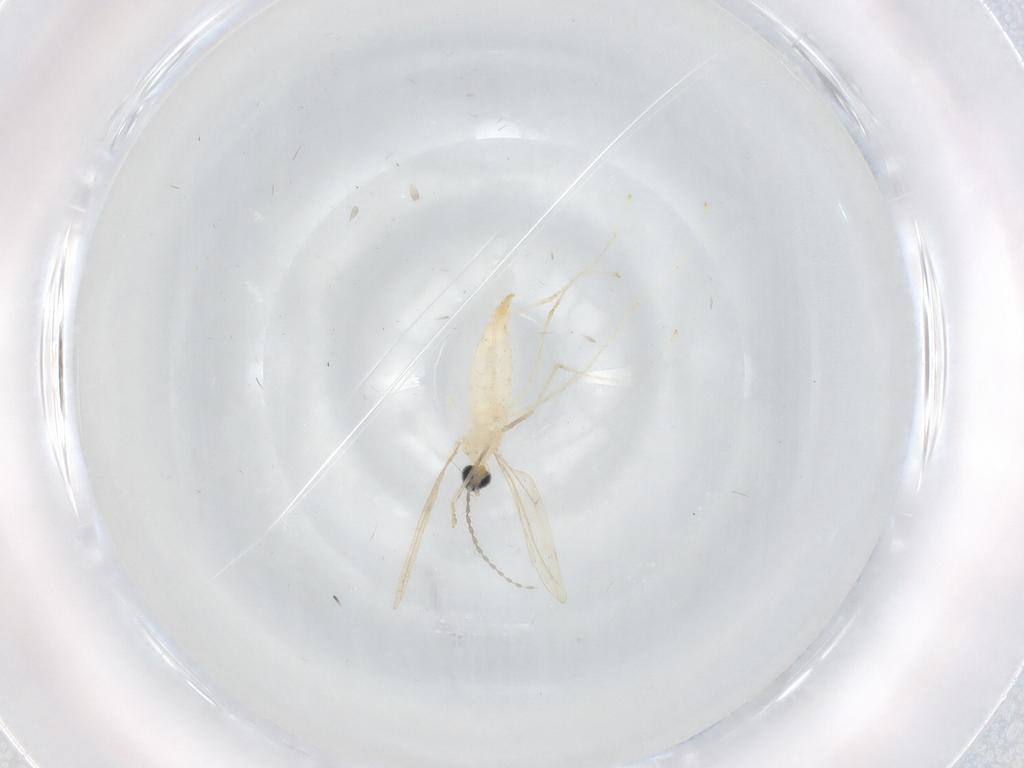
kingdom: Animalia
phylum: Arthropoda
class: Insecta
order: Diptera
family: Cecidomyiidae
